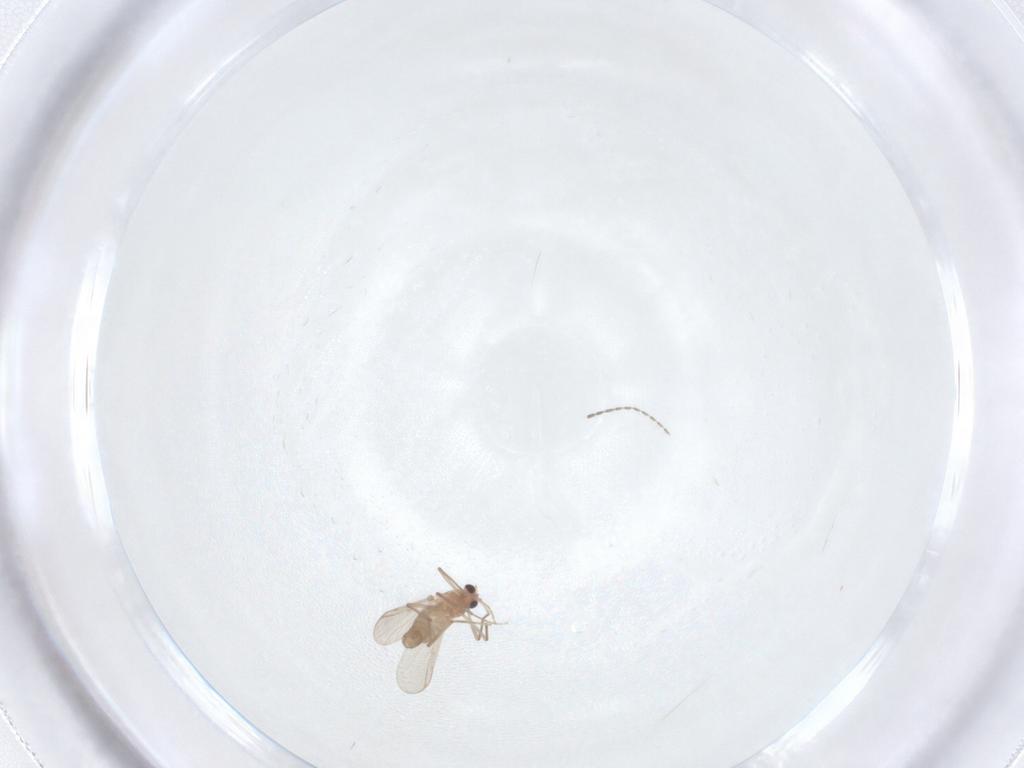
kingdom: Animalia
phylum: Arthropoda
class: Insecta
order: Diptera
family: Chironomidae
